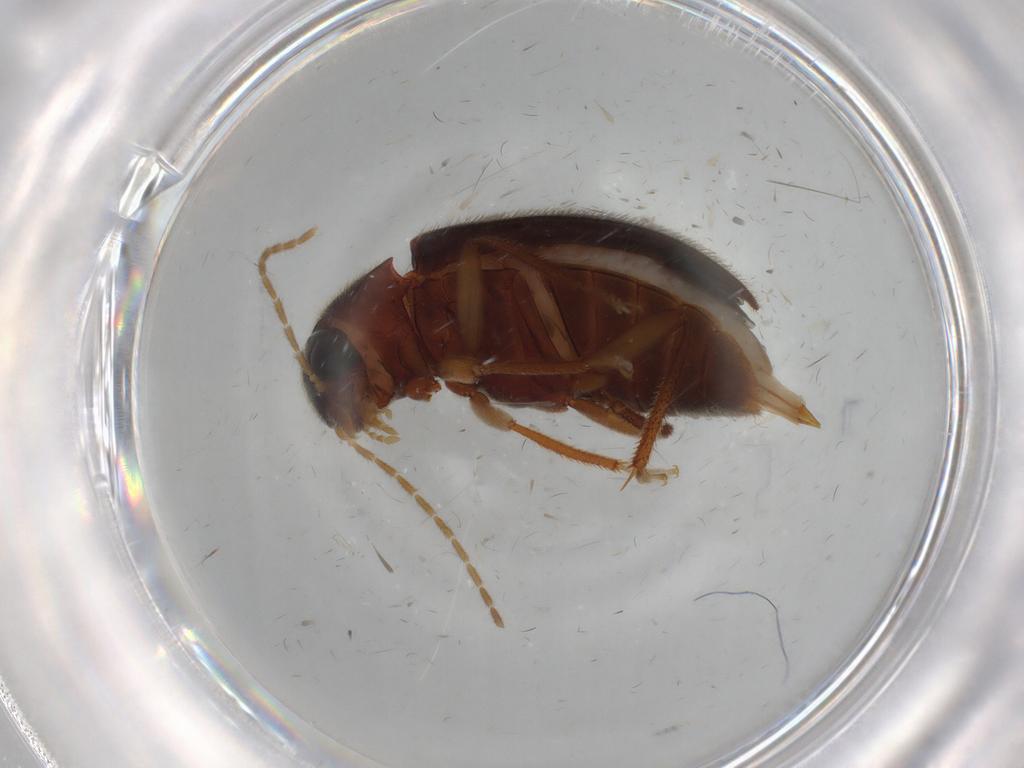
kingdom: Animalia
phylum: Arthropoda
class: Insecta
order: Coleoptera
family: Ptilodactylidae
